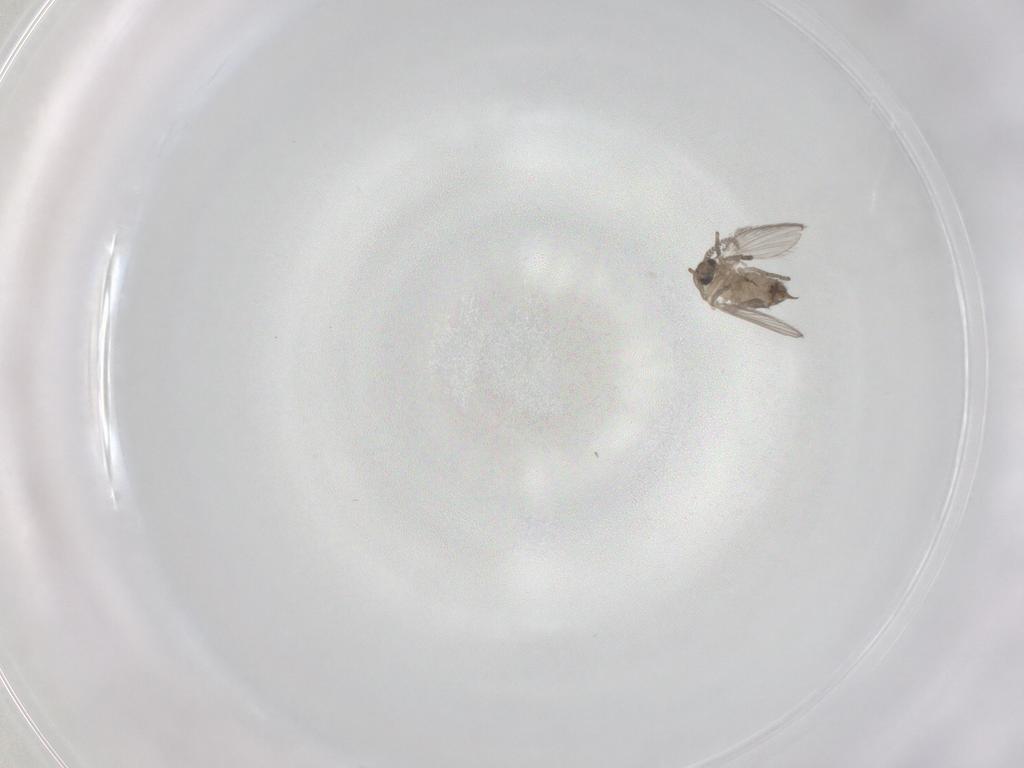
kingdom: Animalia
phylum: Arthropoda
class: Insecta
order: Diptera
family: Psychodidae
